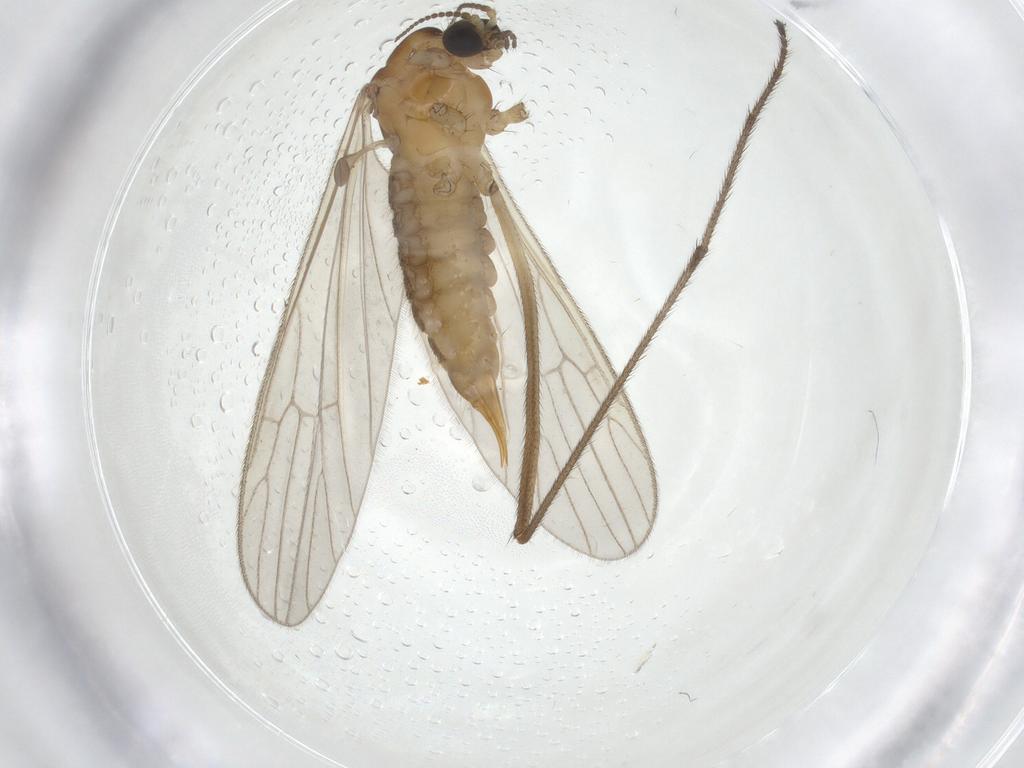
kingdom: Animalia
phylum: Arthropoda
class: Insecta
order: Diptera
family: Limoniidae
